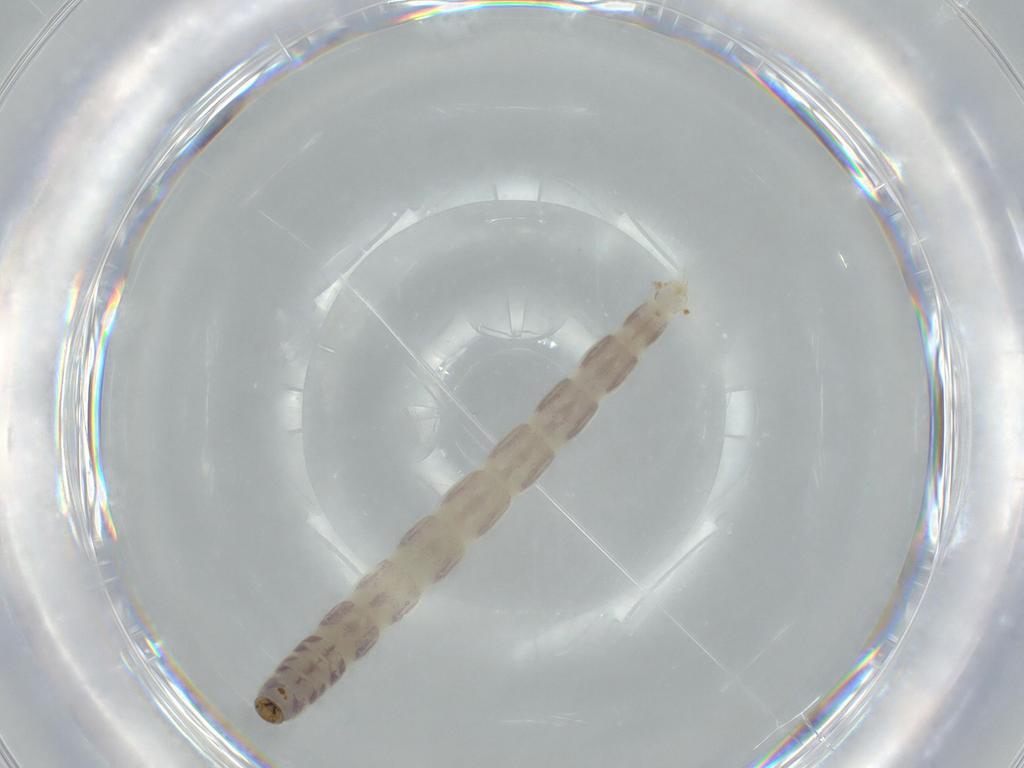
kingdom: Animalia
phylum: Arthropoda
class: Insecta
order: Diptera
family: Chironomidae
